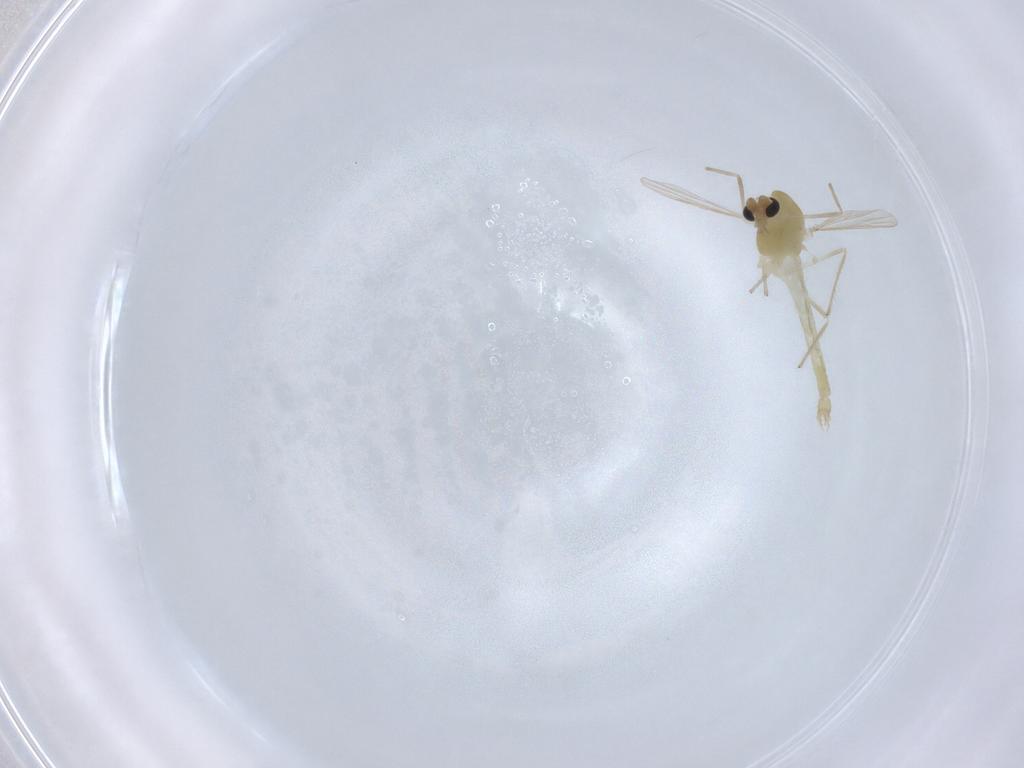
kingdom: Animalia
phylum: Arthropoda
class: Insecta
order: Diptera
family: Chironomidae
